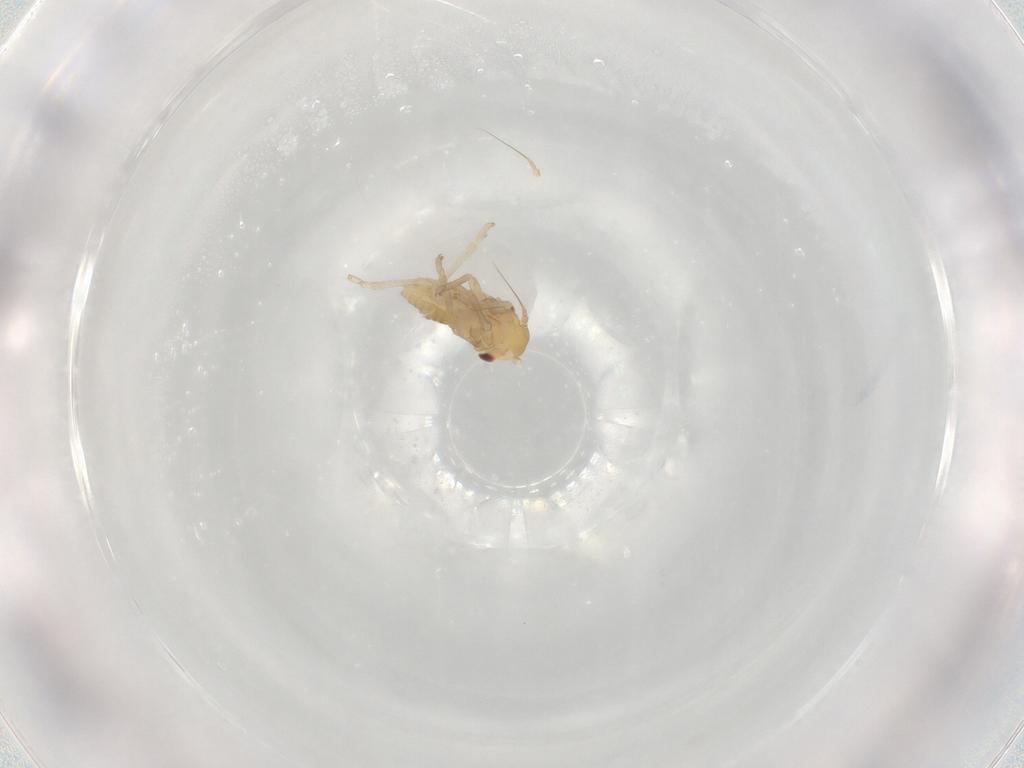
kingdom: Animalia
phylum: Arthropoda
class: Insecta
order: Hemiptera
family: Cicadellidae
